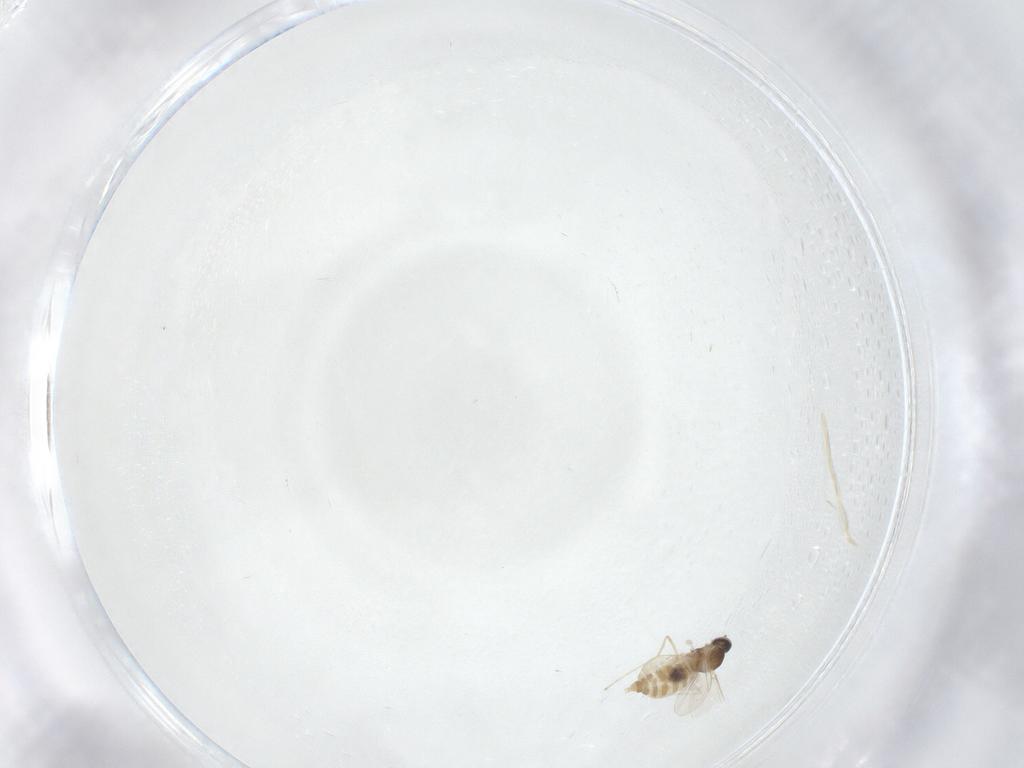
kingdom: Animalia
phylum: Arthropoda
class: Insecta
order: Diptera
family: Cecidomyiidae
